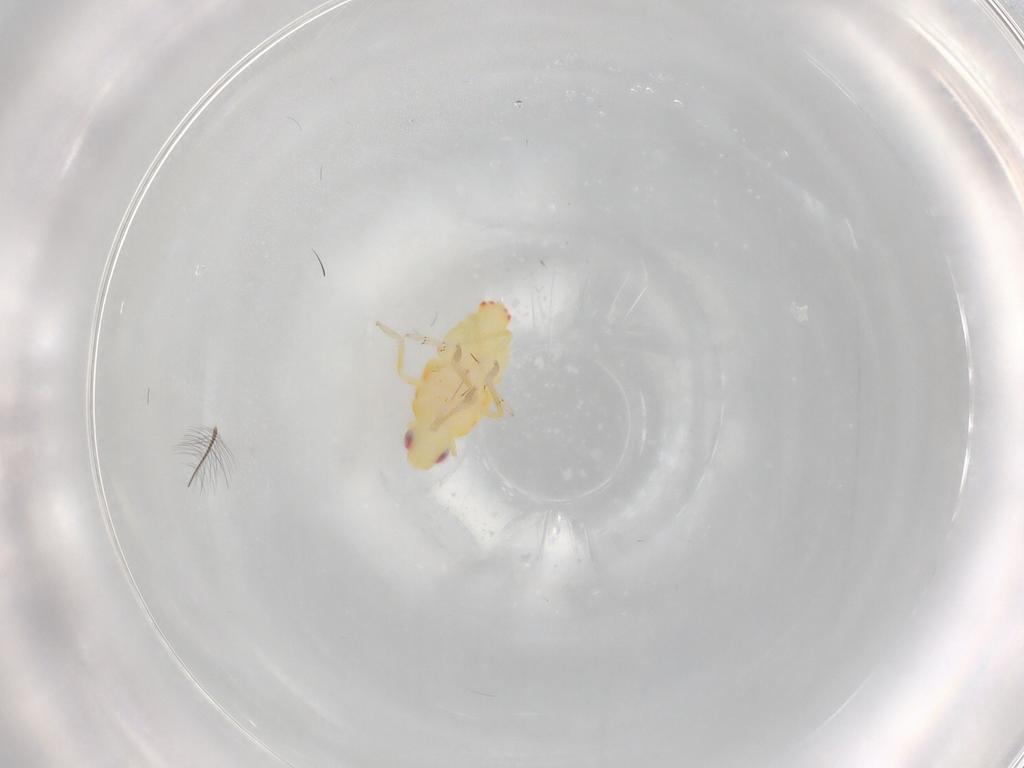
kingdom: Animalia
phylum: Arthropoda
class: Insecta
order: Hemiptera
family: Tropiduchidae
